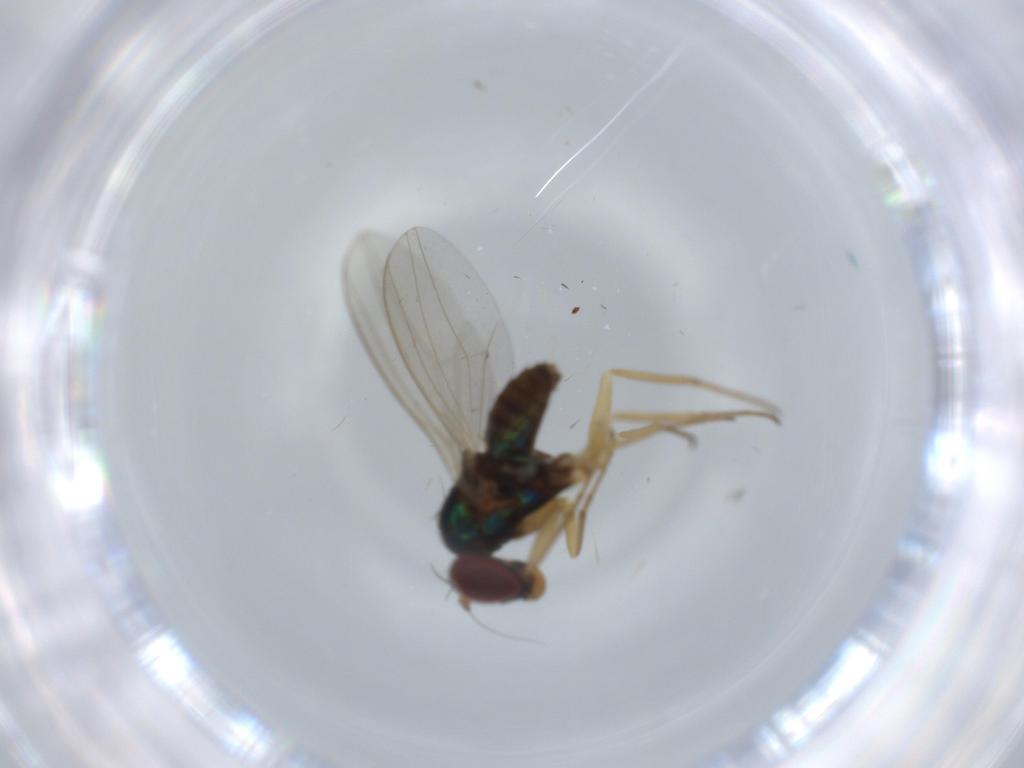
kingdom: Animalia
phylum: Arthropoda
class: Insecta
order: Diptera
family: Dolichopodidae
